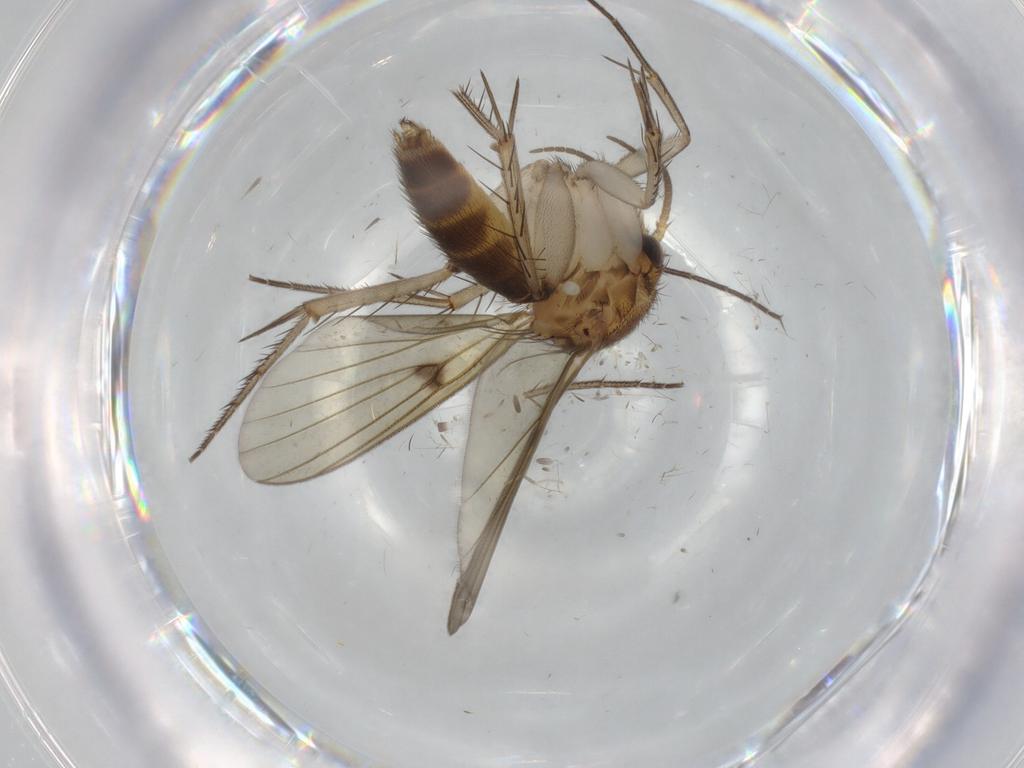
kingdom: Animalia
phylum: Arthropoda
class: Insecta
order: Diptera
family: Mycetophilidae
